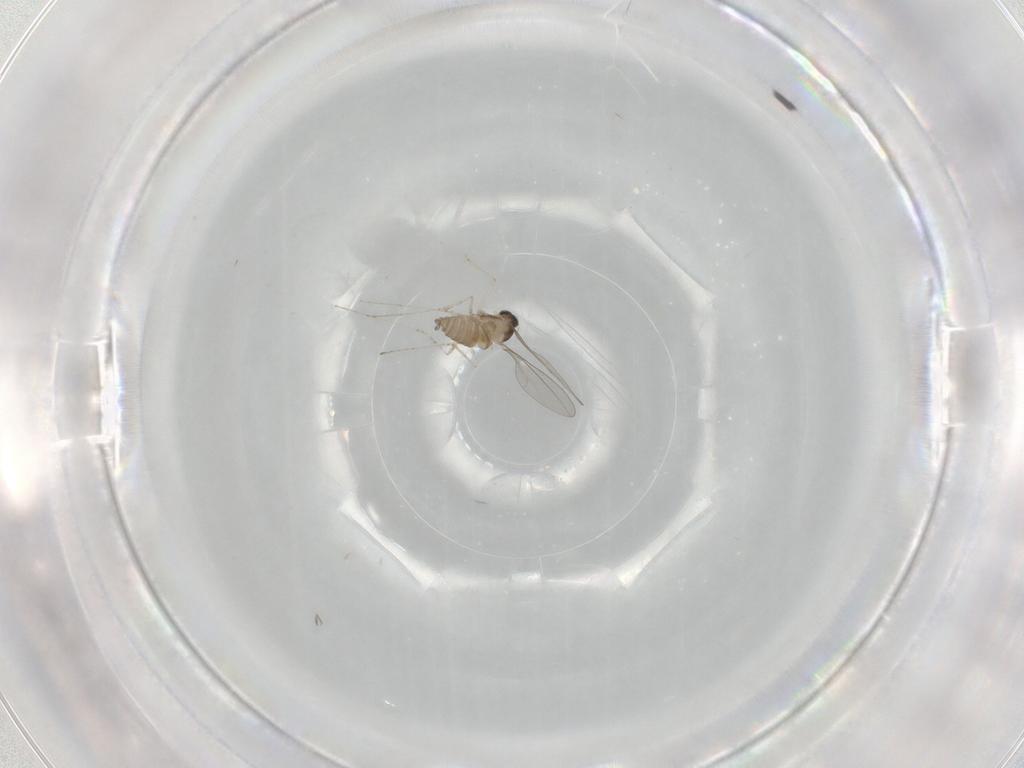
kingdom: Animalia
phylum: Arthropoda
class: Insecta
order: Diptera
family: Cecidomyiidae
